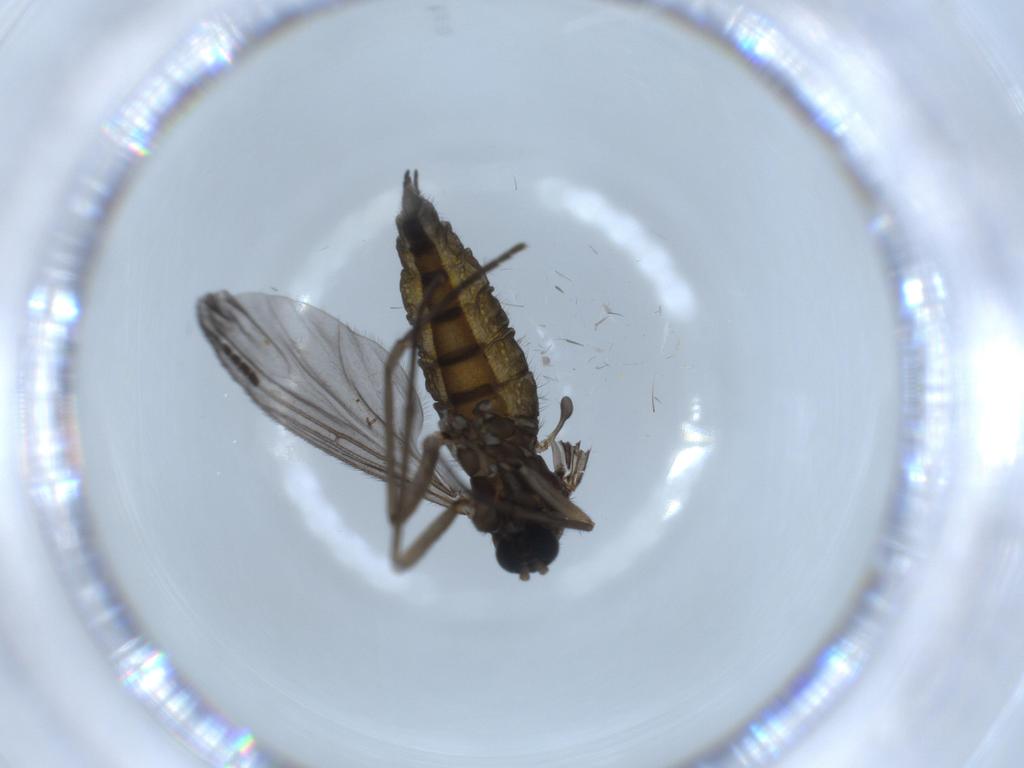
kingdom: Animalia
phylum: Arthropoda
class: Insecta
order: Diptera
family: Sciaridae
